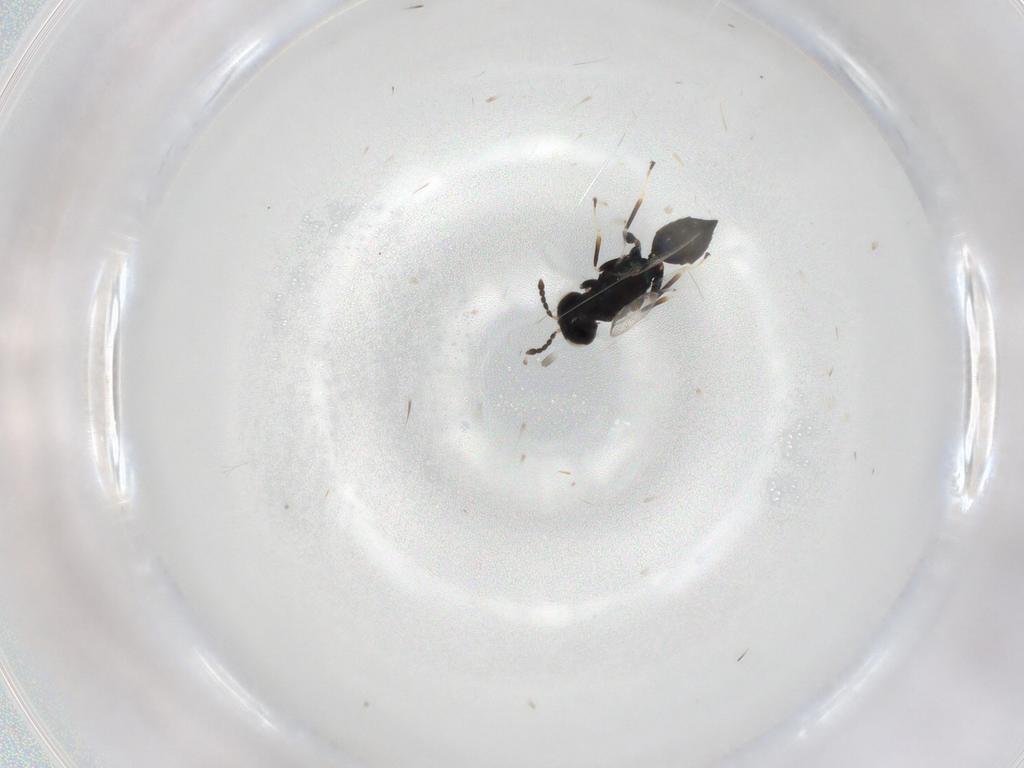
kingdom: Animalia
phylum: Arthropoda
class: Insecta
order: Hymenoptera
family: Eulophidae
